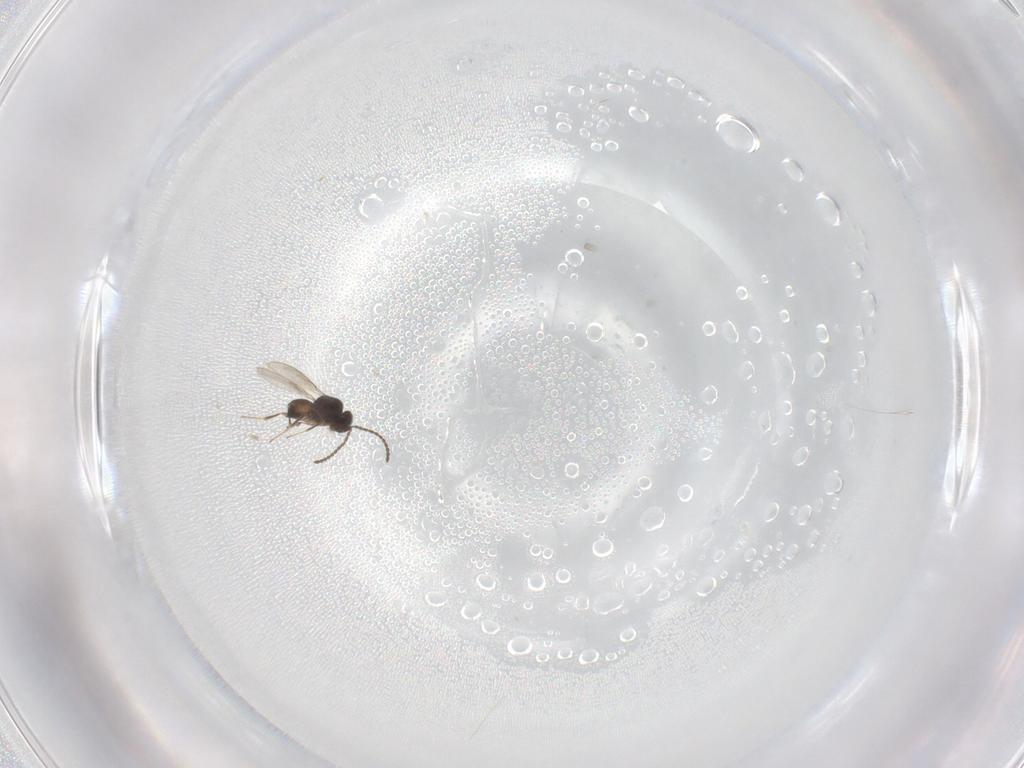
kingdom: Animalia
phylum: Arthropoda
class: Insecta
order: Hymenoptera
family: Scelionidae
